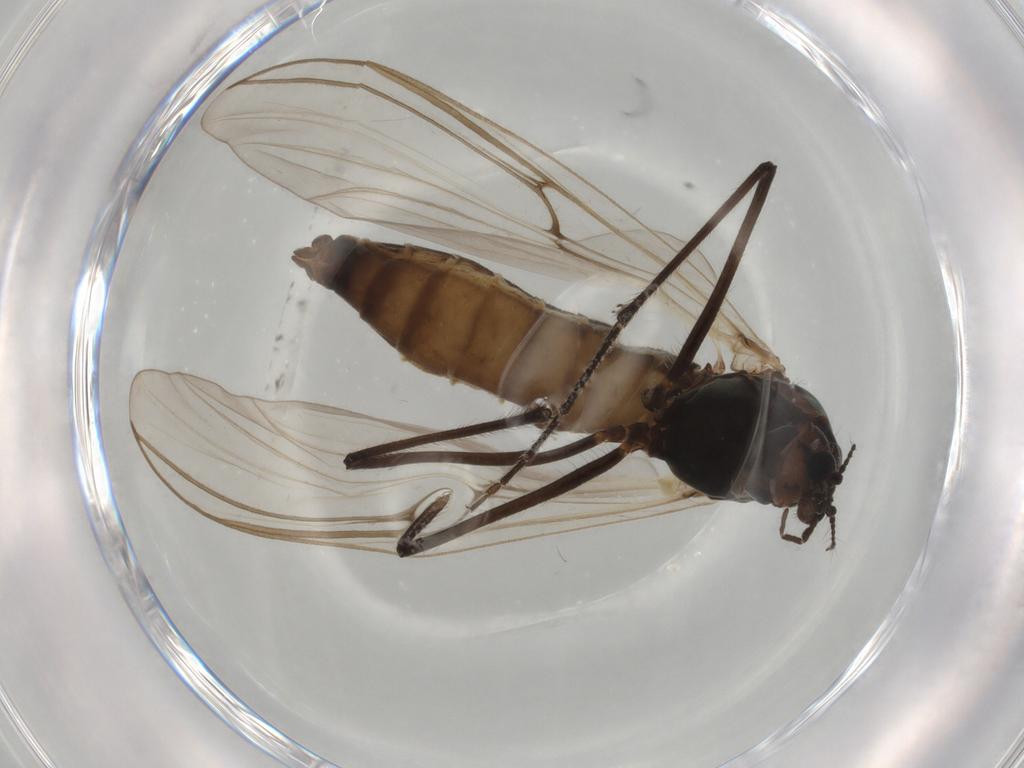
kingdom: Animalia
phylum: Arthropoda
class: Insecta
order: Diptera
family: Chironomidae
